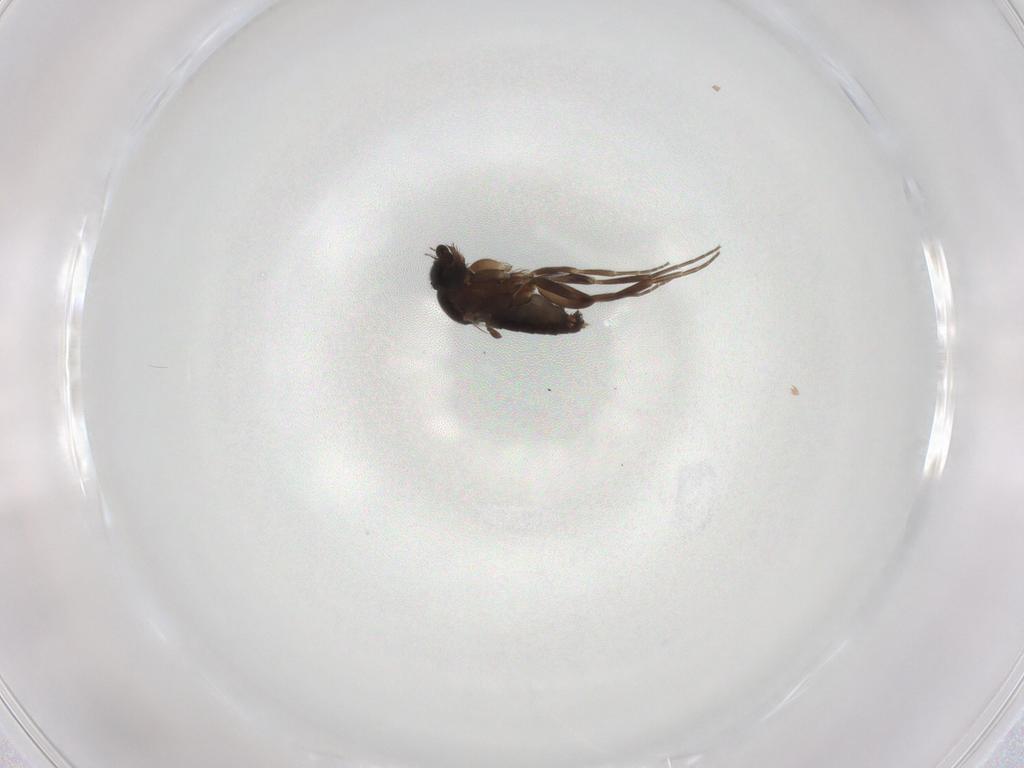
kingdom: Animalia
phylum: Arthropoda
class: Insecta
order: Diptera
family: Phoridae
